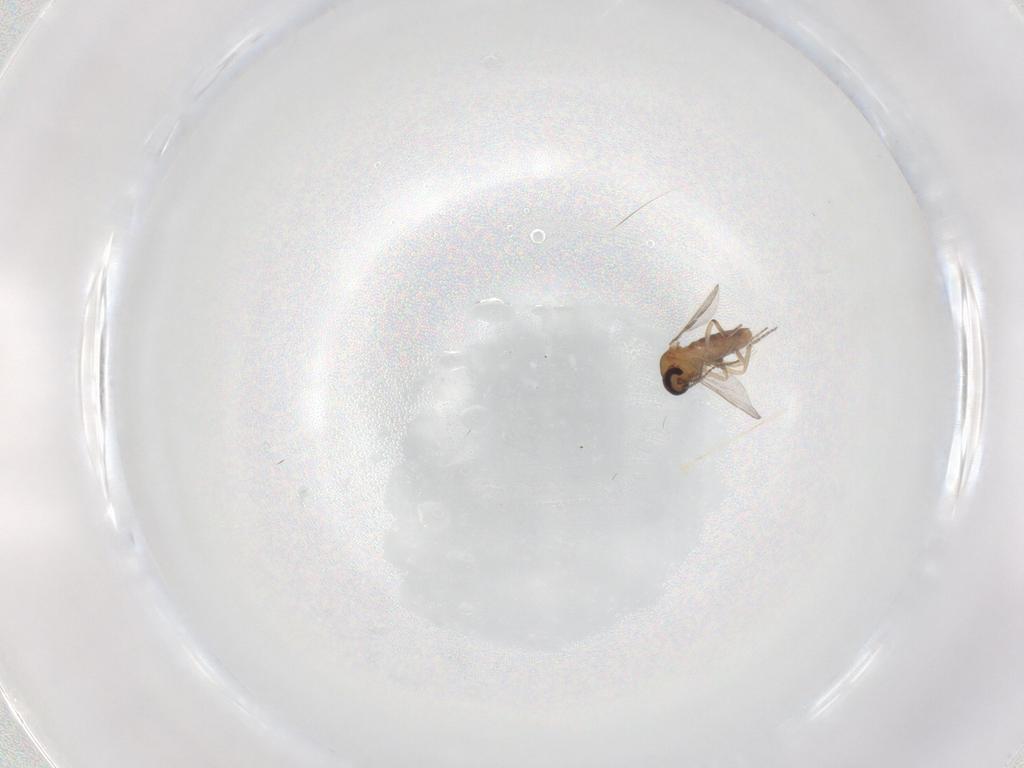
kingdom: Animalia
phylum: Arthropoda
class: Insecta
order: Diptera
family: Ceratopogonidae
